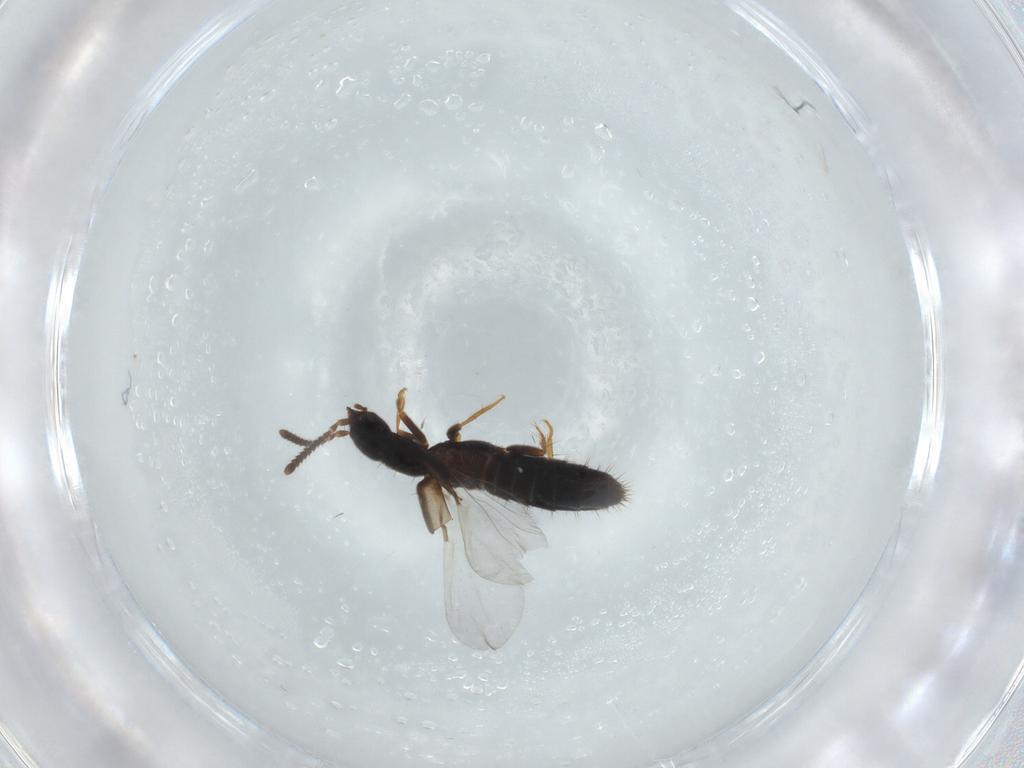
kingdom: Animalia
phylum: Arthropoda
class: Insecta
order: Coleoptera
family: Staphylinidae
